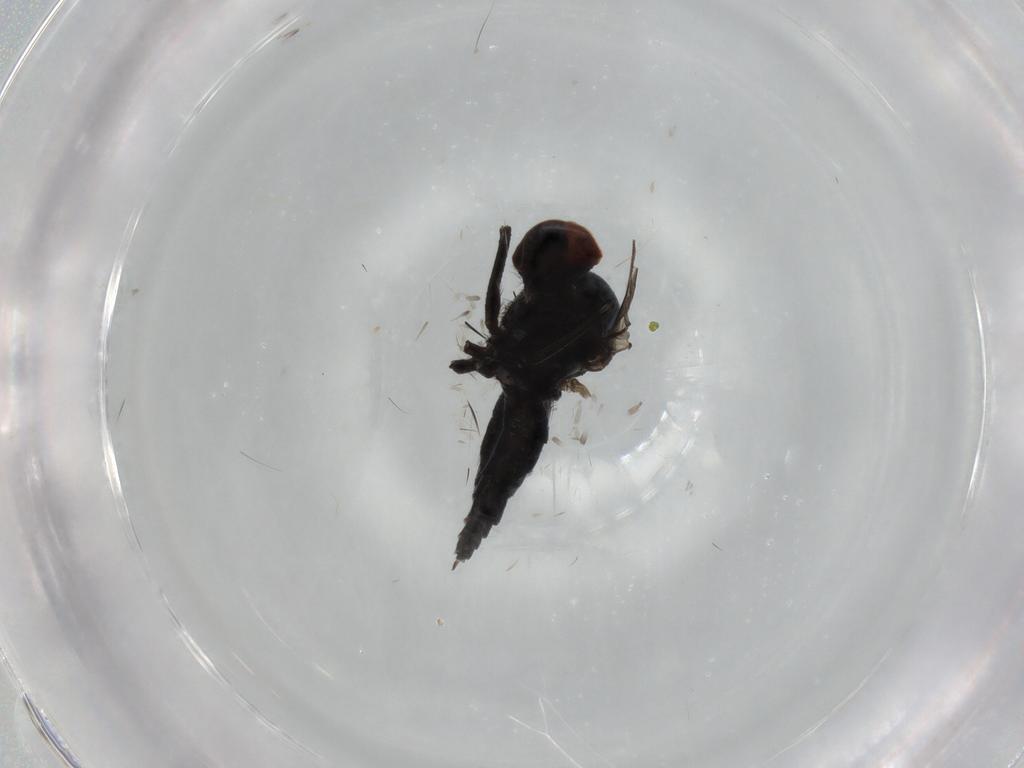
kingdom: Animalia
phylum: Arthropoda
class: Insecta
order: Diptera
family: Hybotidae
